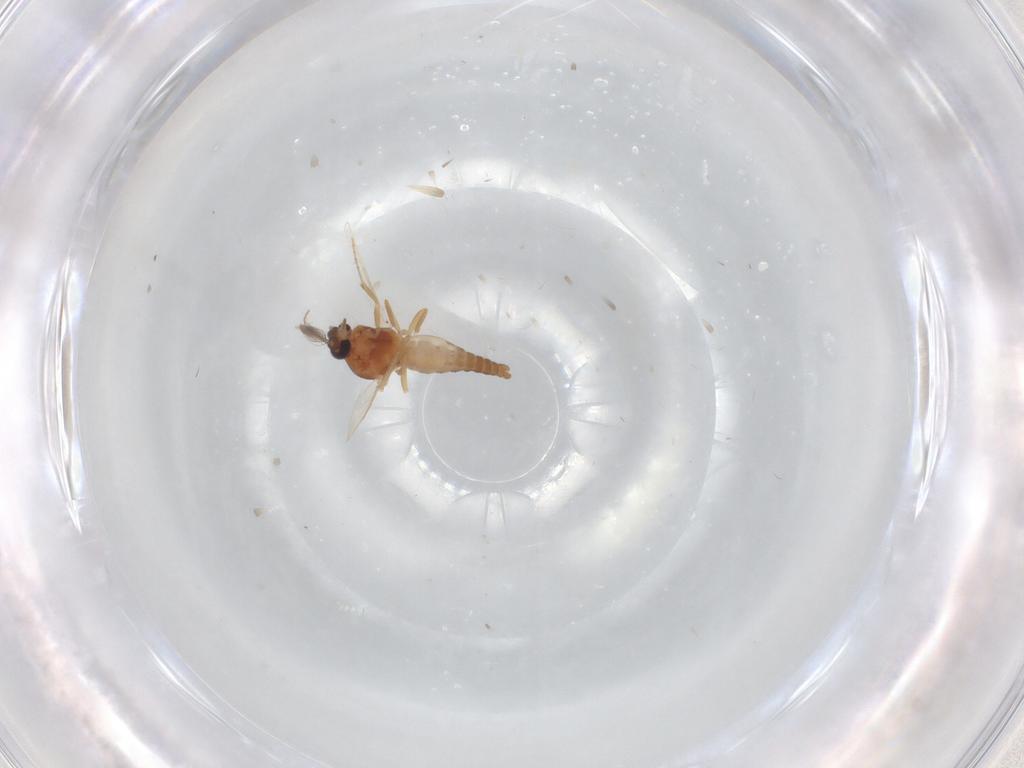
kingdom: Animalia
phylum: Arthropoda
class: Insecta
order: Diptera
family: Ceratopogonidae
